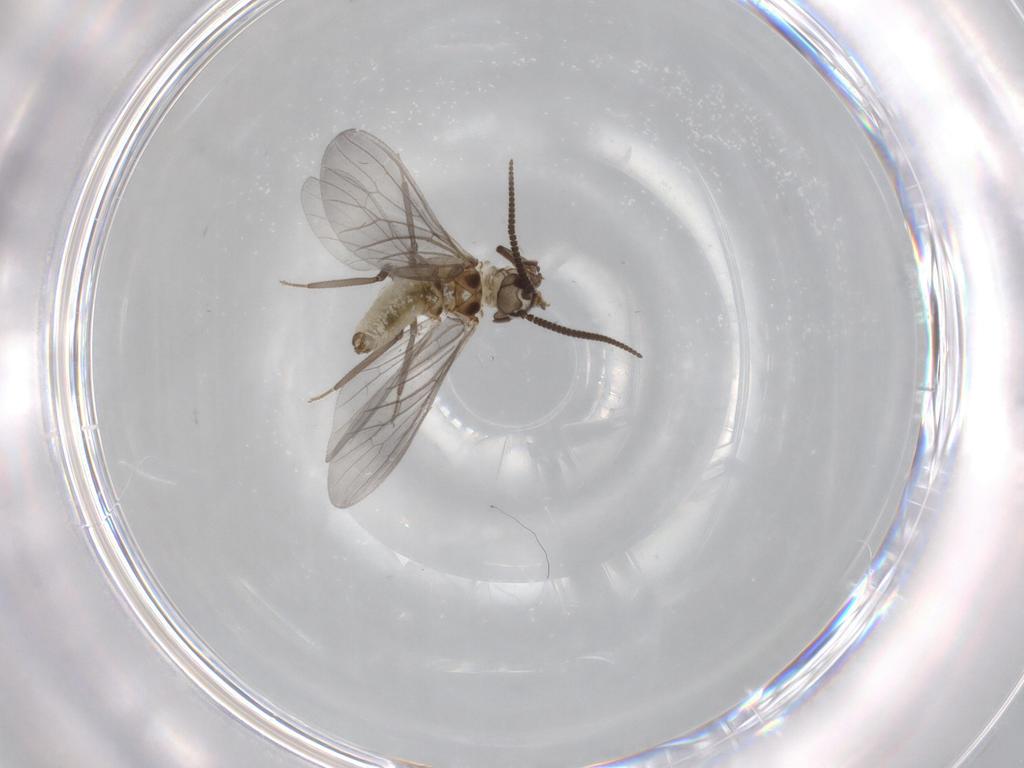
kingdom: Animalia
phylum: Arthropoda
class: Insecta
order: Neuroptera
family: Coniopterygidae
